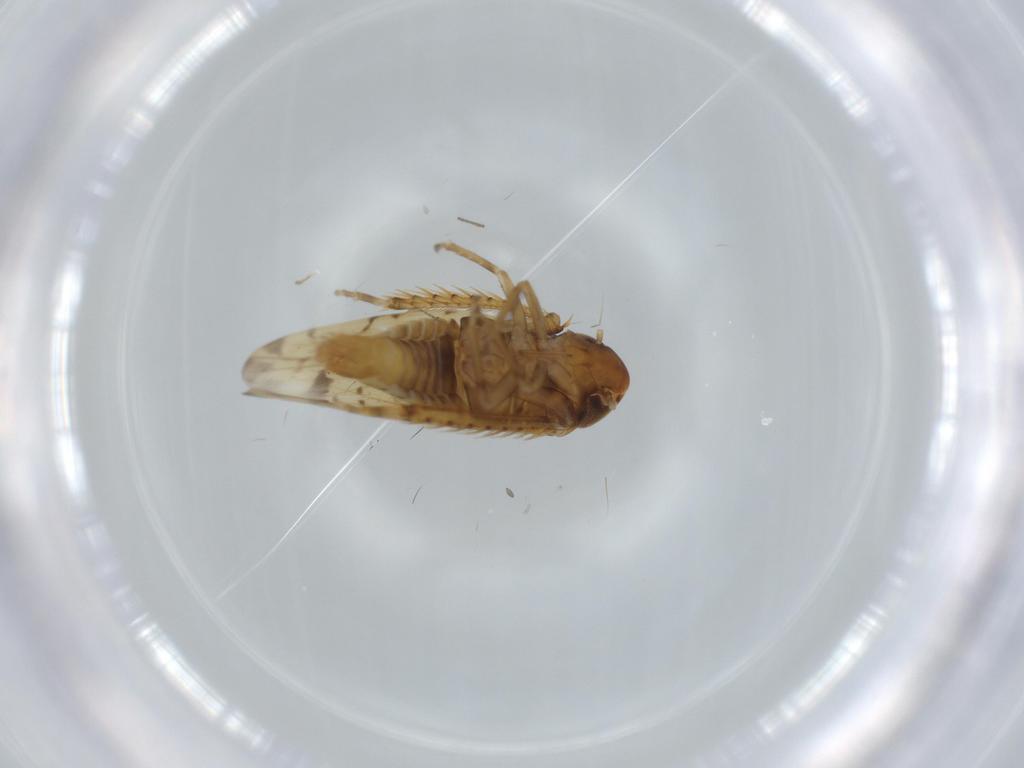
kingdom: Animalia
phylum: Arthropoda
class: Insecta
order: Hemiptera
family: Cicadellidae
